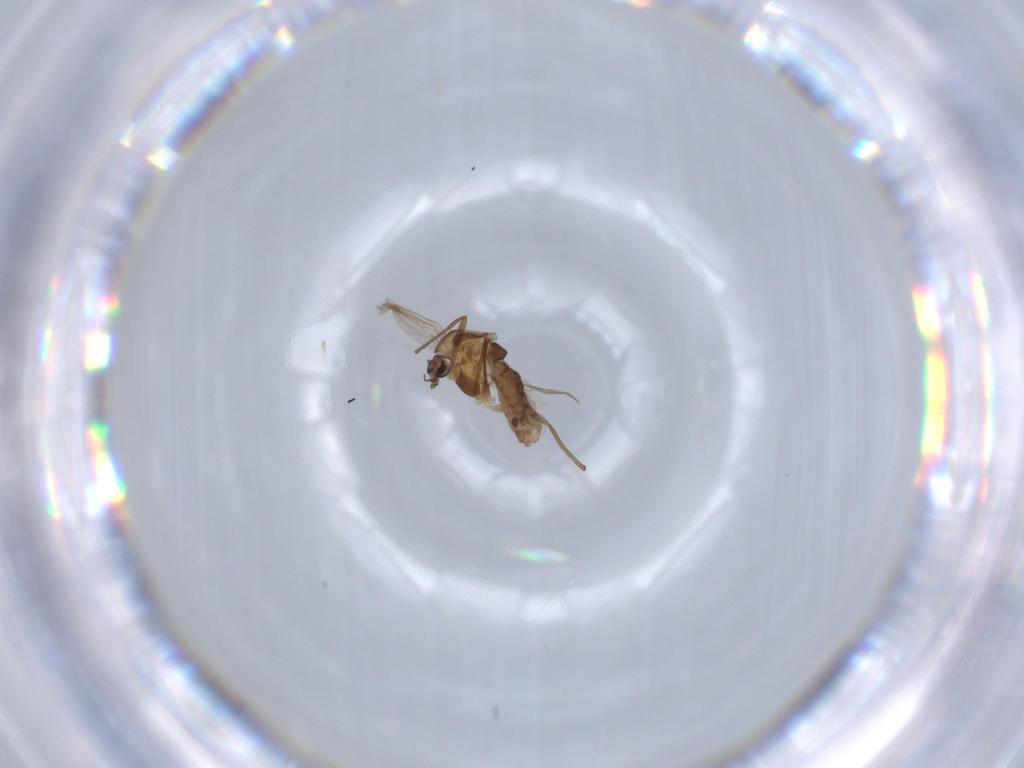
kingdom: Animalia
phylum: Arthropoda
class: Insecta
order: Diptera
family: Chironomidae
